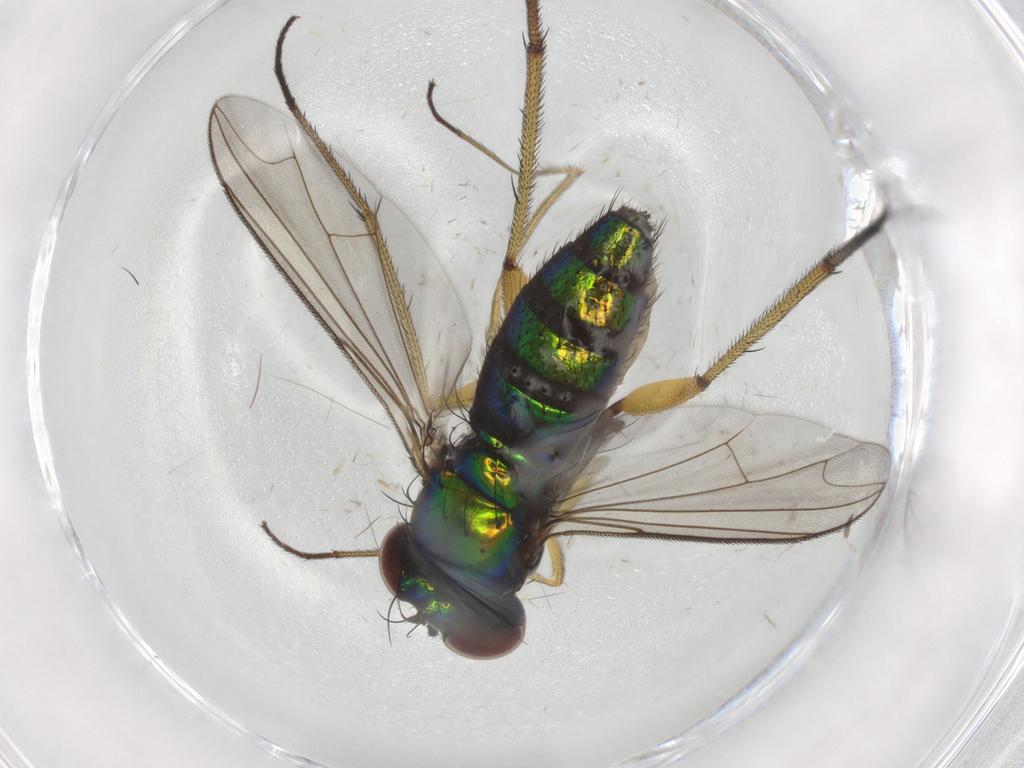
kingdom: Animalia
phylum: Arthropoda
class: Insecta
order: Diptera
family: Dolichopodidae
